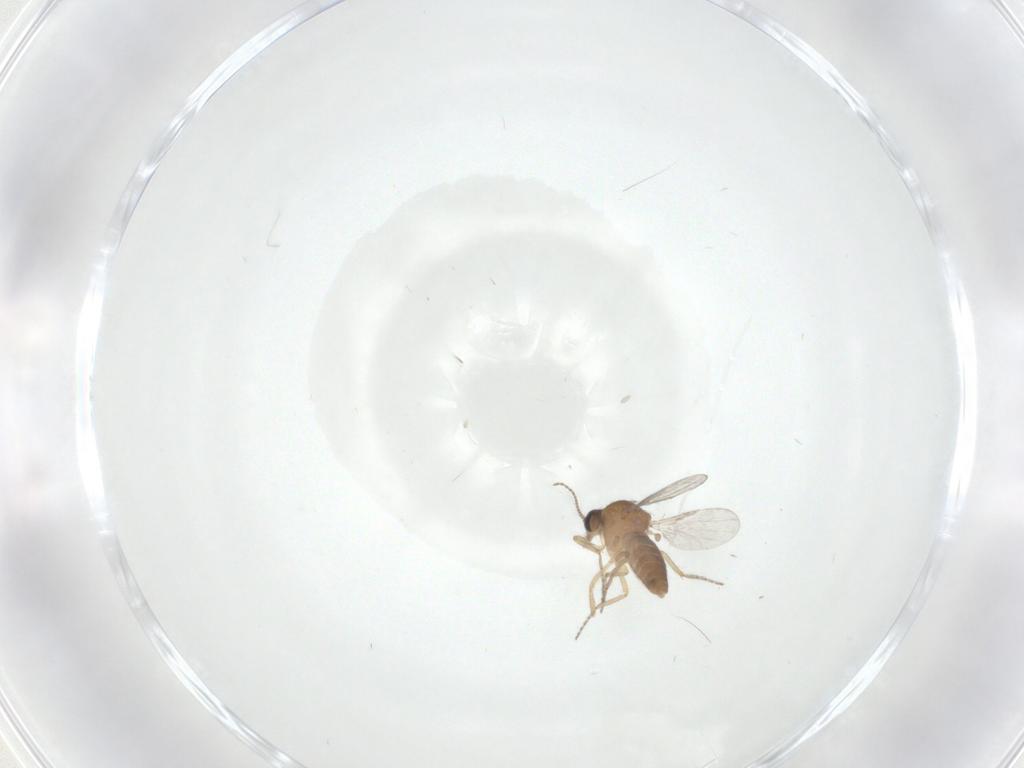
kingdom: Animalia
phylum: Arthropoda
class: Insecta
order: Diptera
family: Ceratopogonidae
